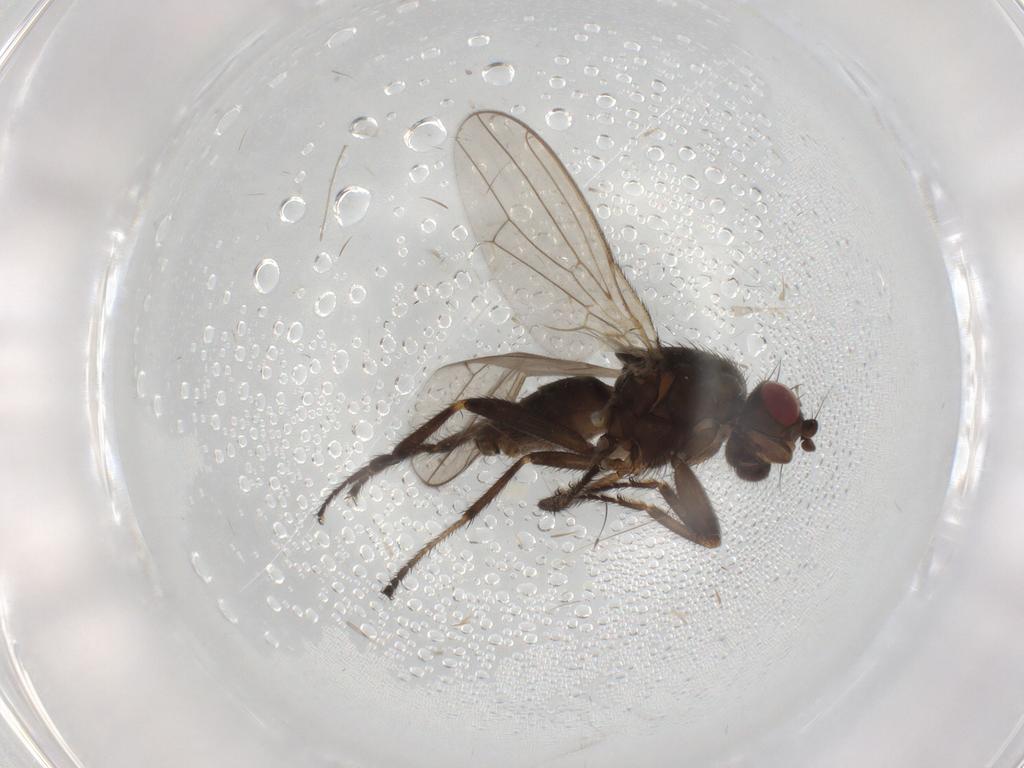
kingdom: Animalia
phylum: Arthropoda
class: Insecta
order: Diptera
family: Sphaeroceridae
